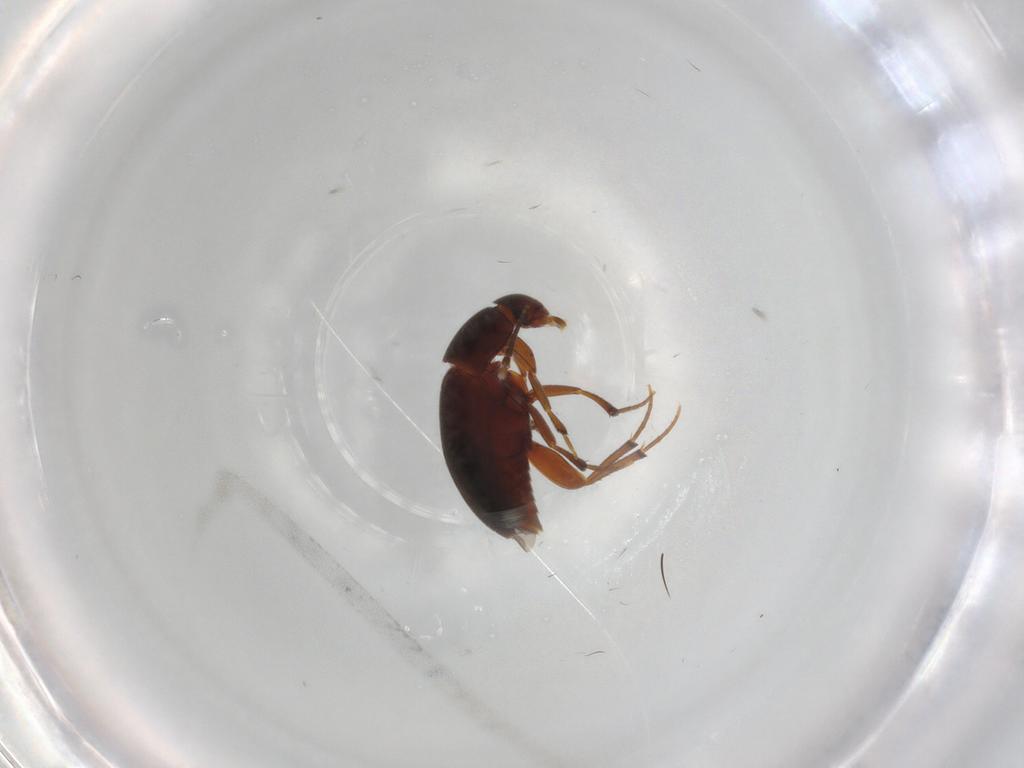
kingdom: Animalia
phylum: Arthropoda
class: Insecta
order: Coleoptera
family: Leiodidae
